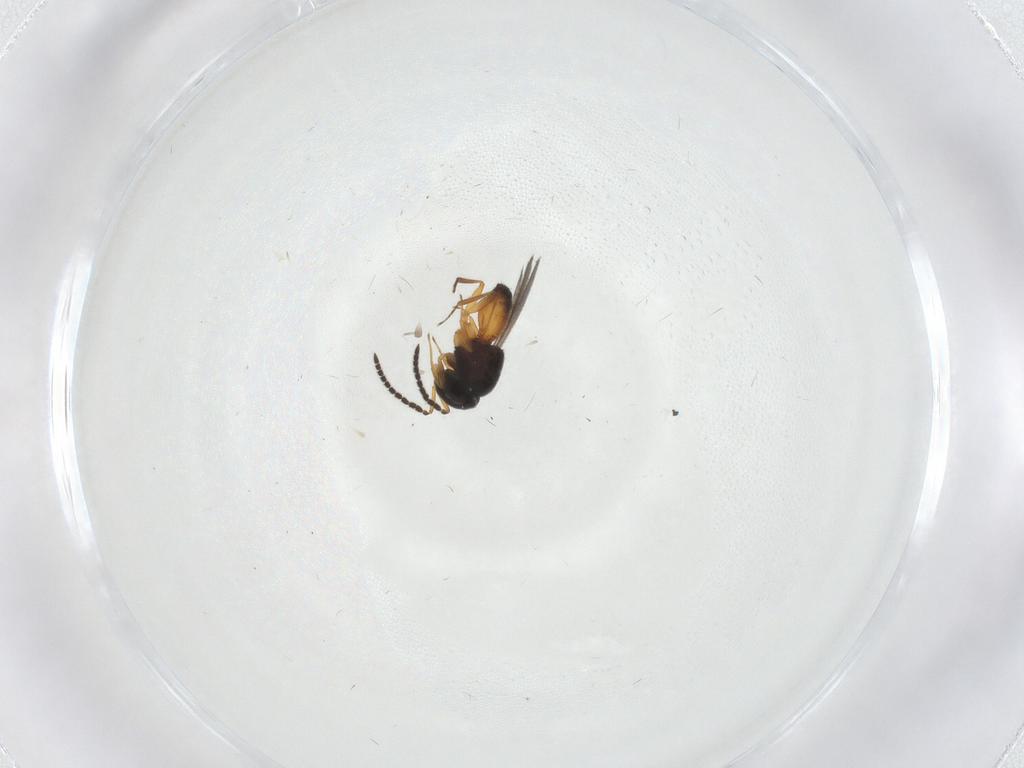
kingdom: Animalia
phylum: Arthropoda
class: Insecta
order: Hymenoptera
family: Scelionidae
